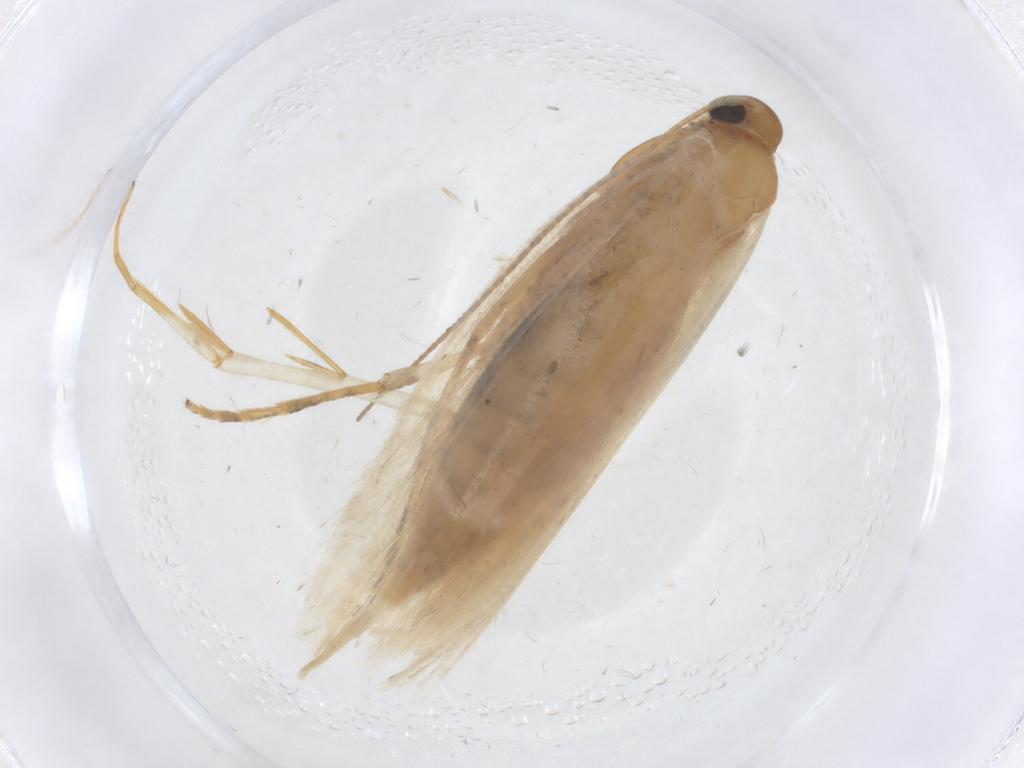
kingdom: Animalia
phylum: Arthropoda
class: Insecta
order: Lepidoptera
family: Oecophoridae
